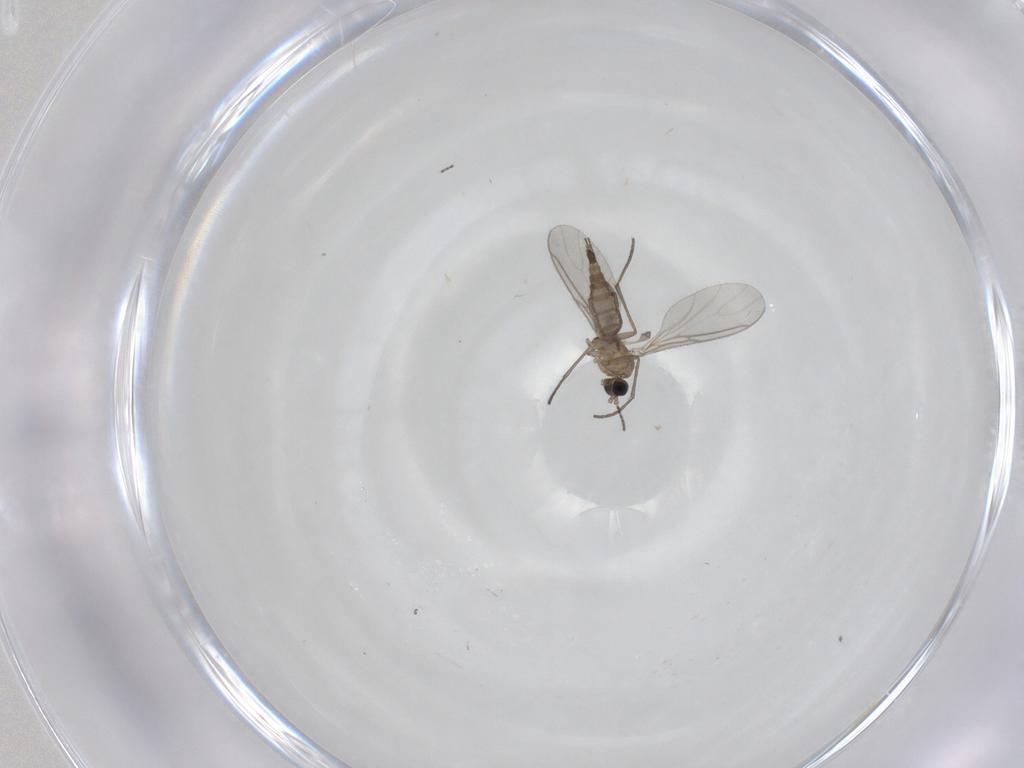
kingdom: Animalia
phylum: Arthropoda
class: Insecta
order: Diptera
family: Sciaridae
